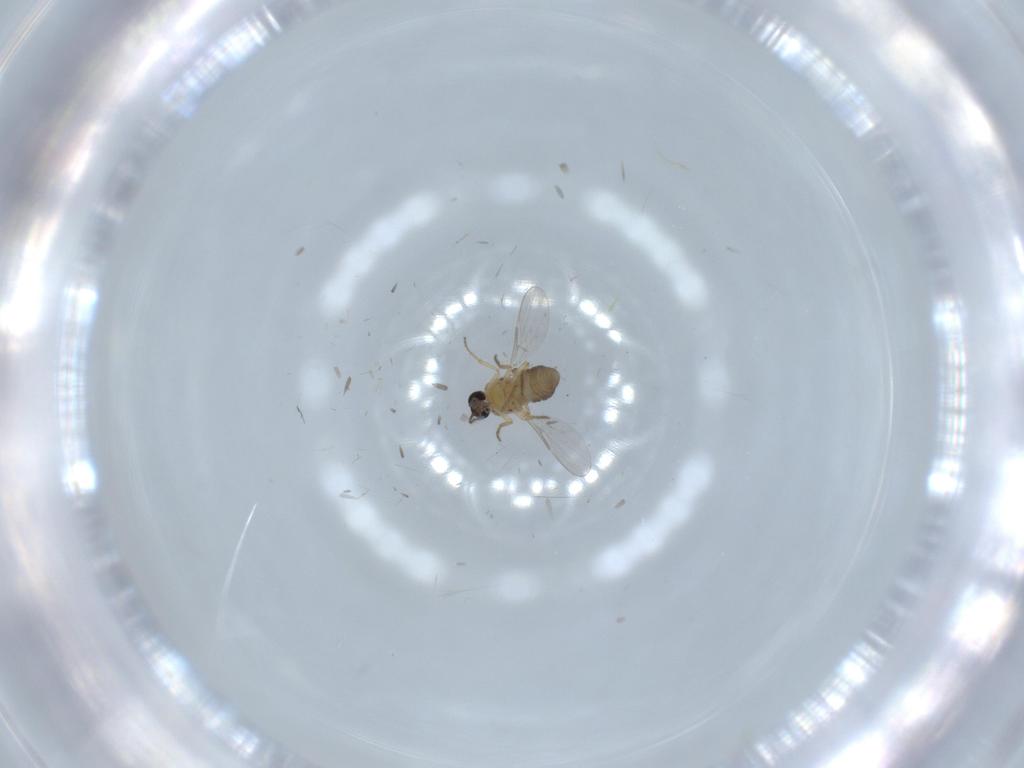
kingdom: Animalia
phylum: Arthropoda
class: Insecta
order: Diptera
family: Ceratopogonidae
